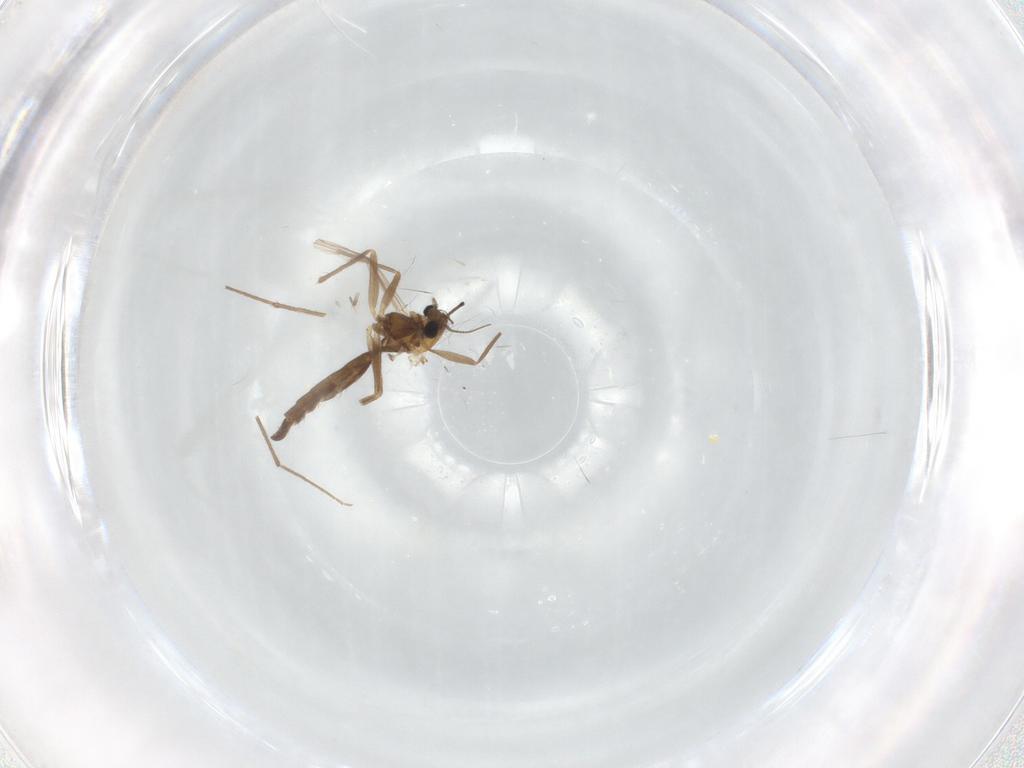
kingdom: Animalia
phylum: Arthropoda
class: Insecta
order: Diptera
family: Chironomidae
